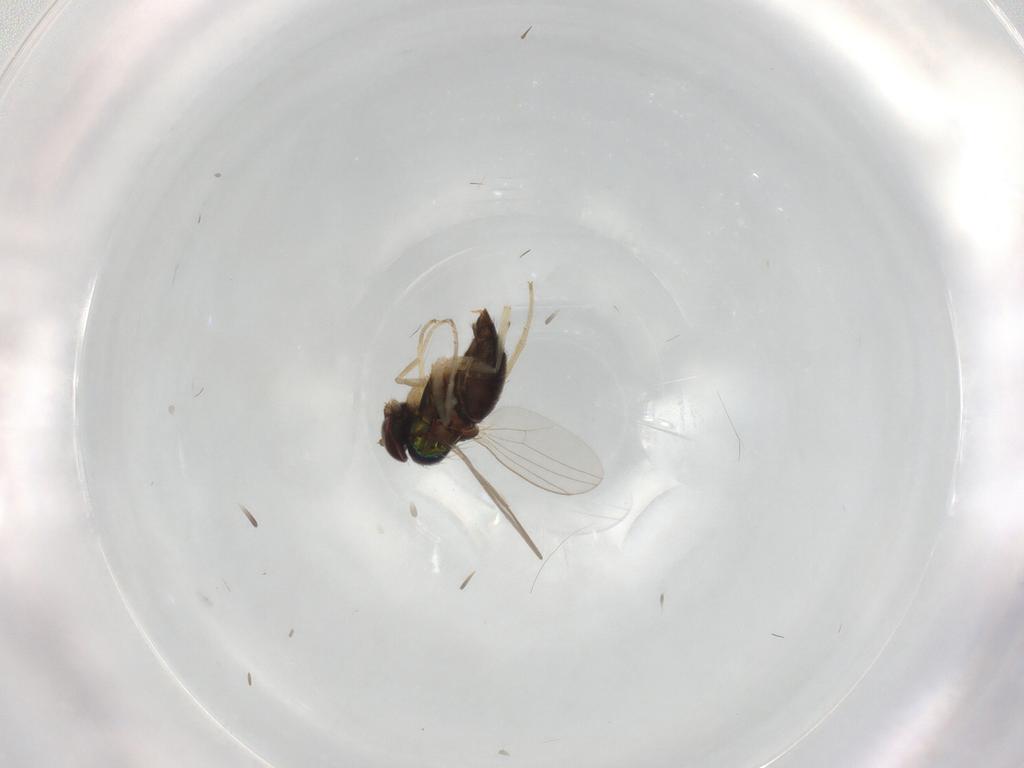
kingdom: Animalia
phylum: Arthropoda
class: Insecta
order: Diptera
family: Dolichopodidae
